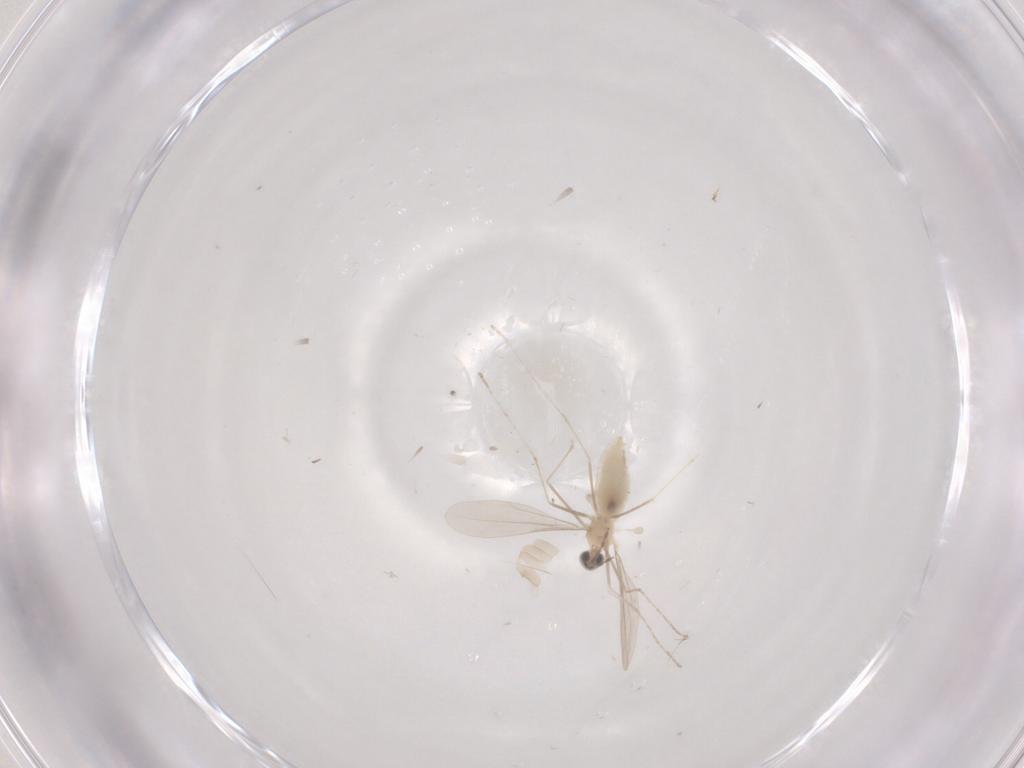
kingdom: Animalia
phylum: Arthropoda
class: Insecta
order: Diptera
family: Cecidomyiidae
